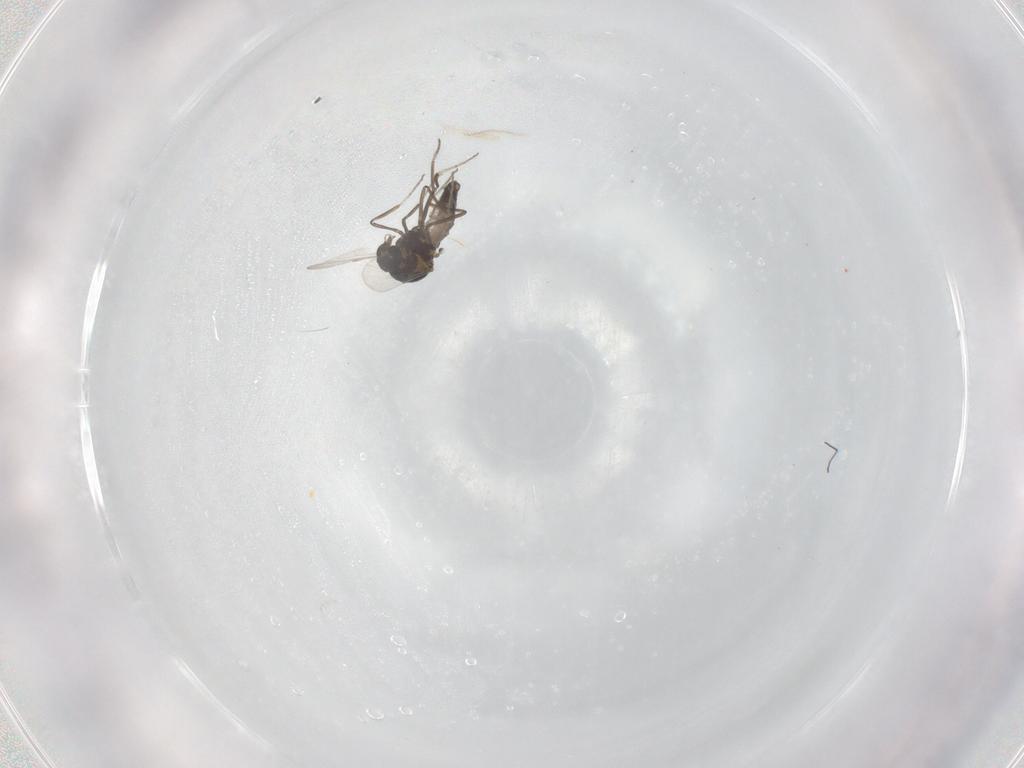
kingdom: Animalia
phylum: Arthropoda
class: Insecta
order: Diptera
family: Ceratopogonidae
